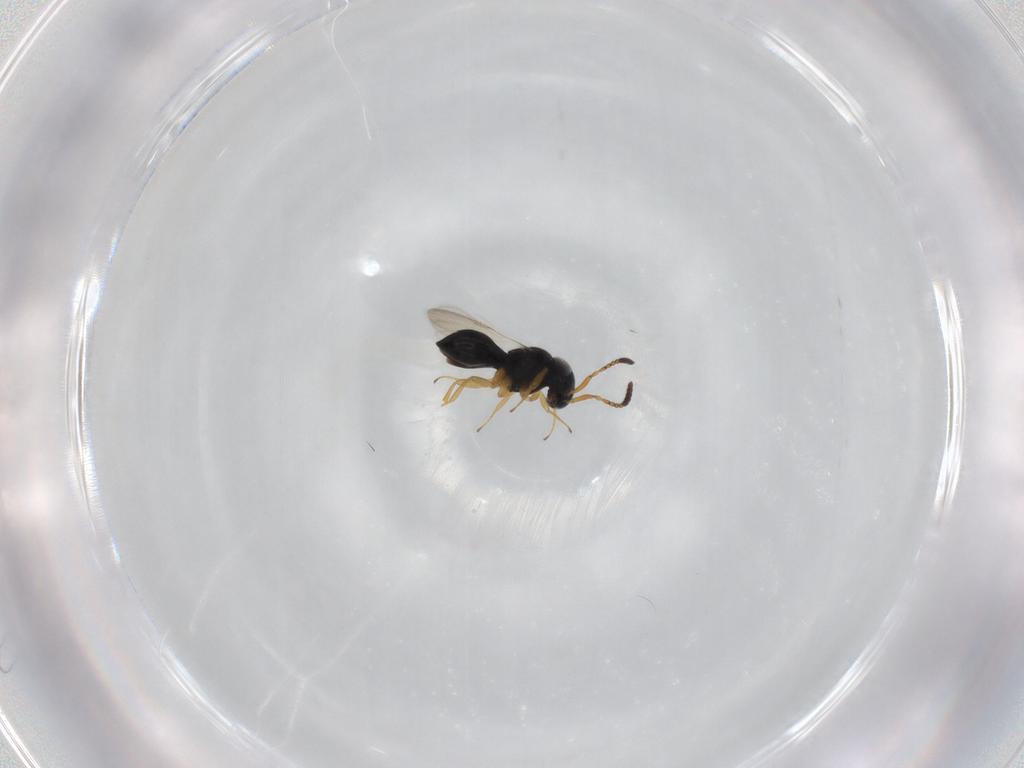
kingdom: Animalia
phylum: Arthropoda
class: Insecta
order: Hymenoptera
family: Scelionidae
